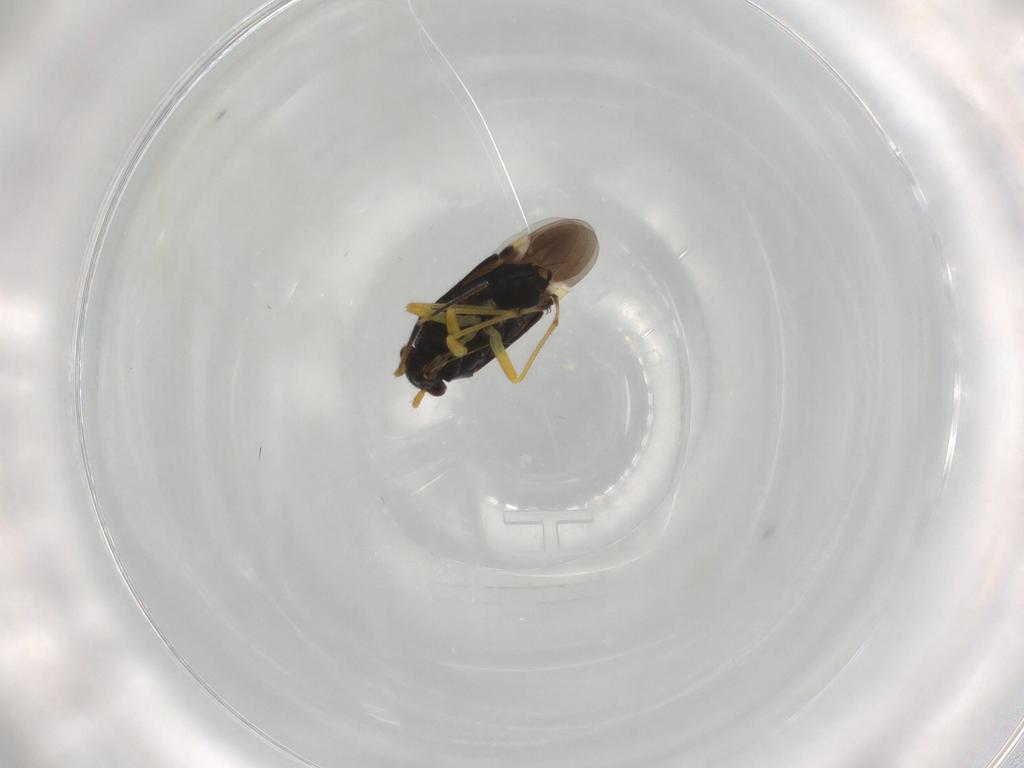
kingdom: Animalia
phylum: Arthropoda
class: Insecta
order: Hemiptera
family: Miridae
